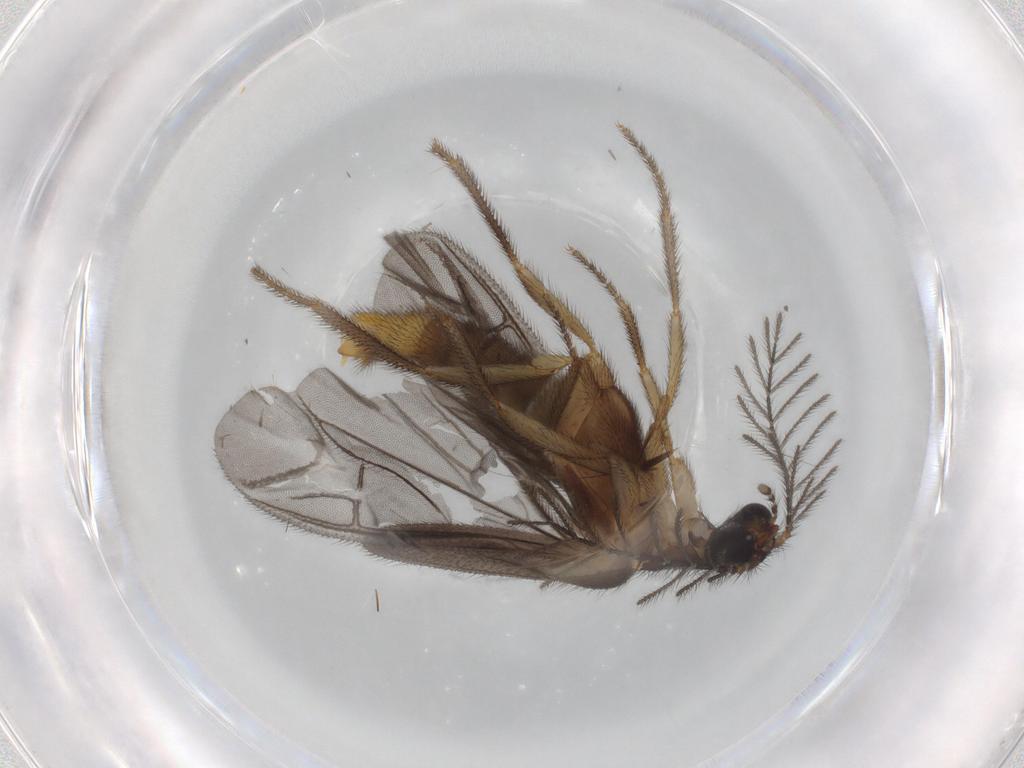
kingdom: Animalia
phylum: Arthropoda
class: Insecta
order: Coleoptera
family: Phengodidae
